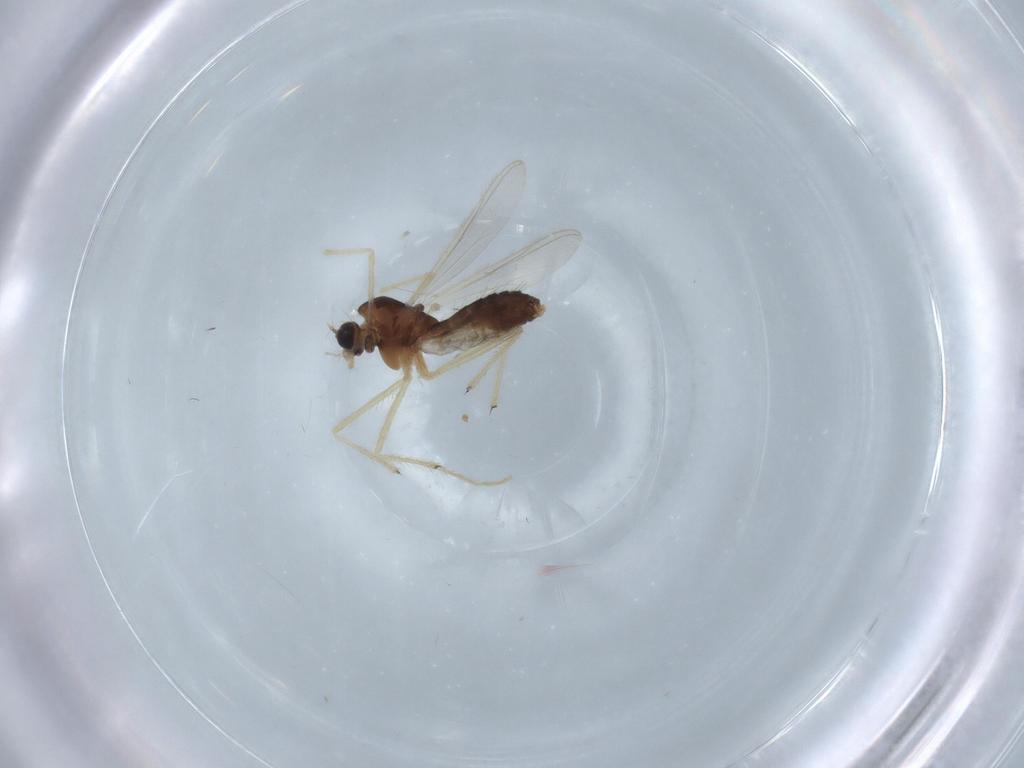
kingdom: Animalia
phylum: Arthropoda
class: Insecta
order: Diptera
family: Chironomidae
